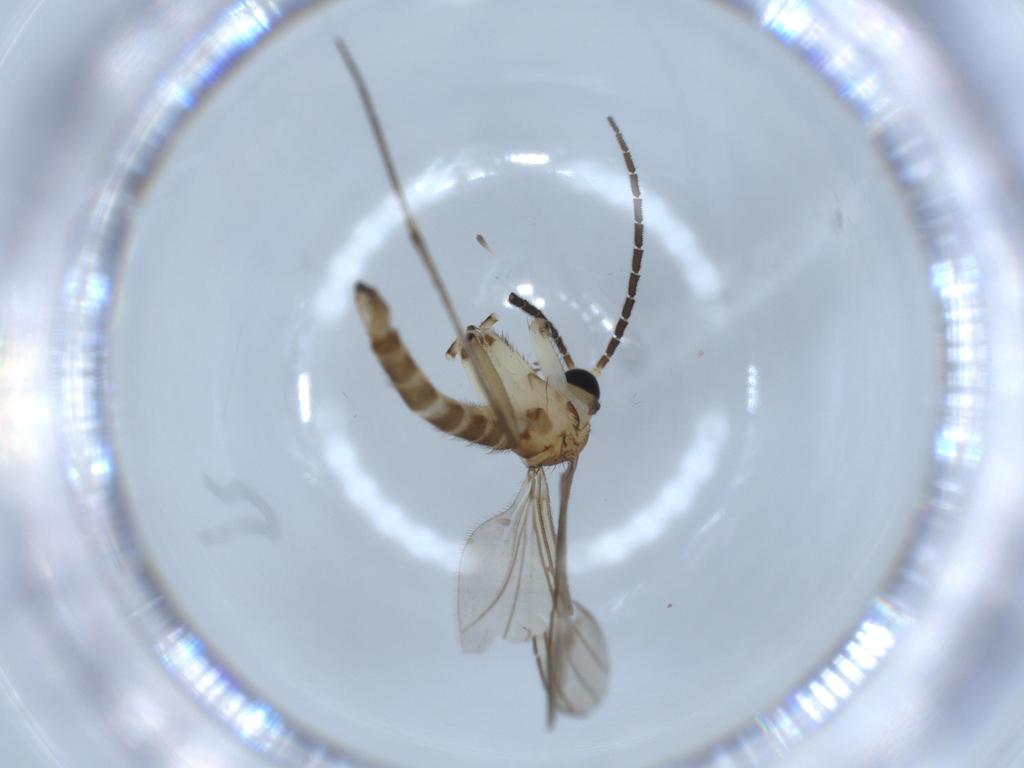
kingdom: Animalia
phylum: Arthropoda
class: Insecta
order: Diptera
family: Sciaridae
